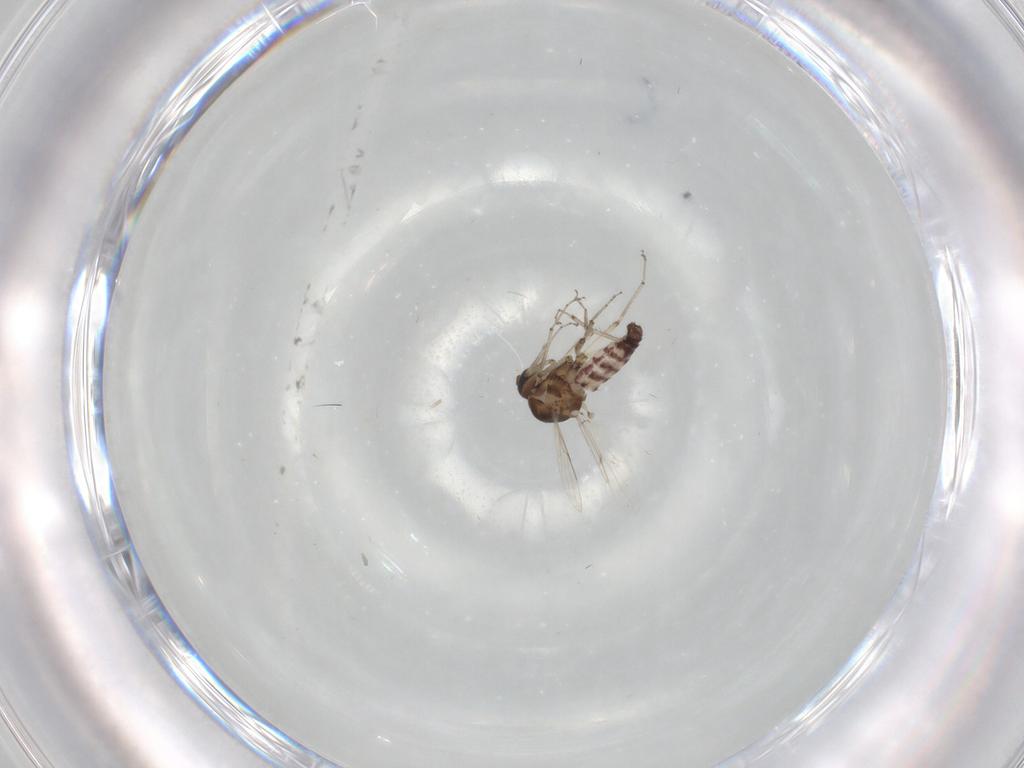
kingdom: Animalia
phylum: Arthropoda
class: Insecta
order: Diptera
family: Ceratopogonidae
